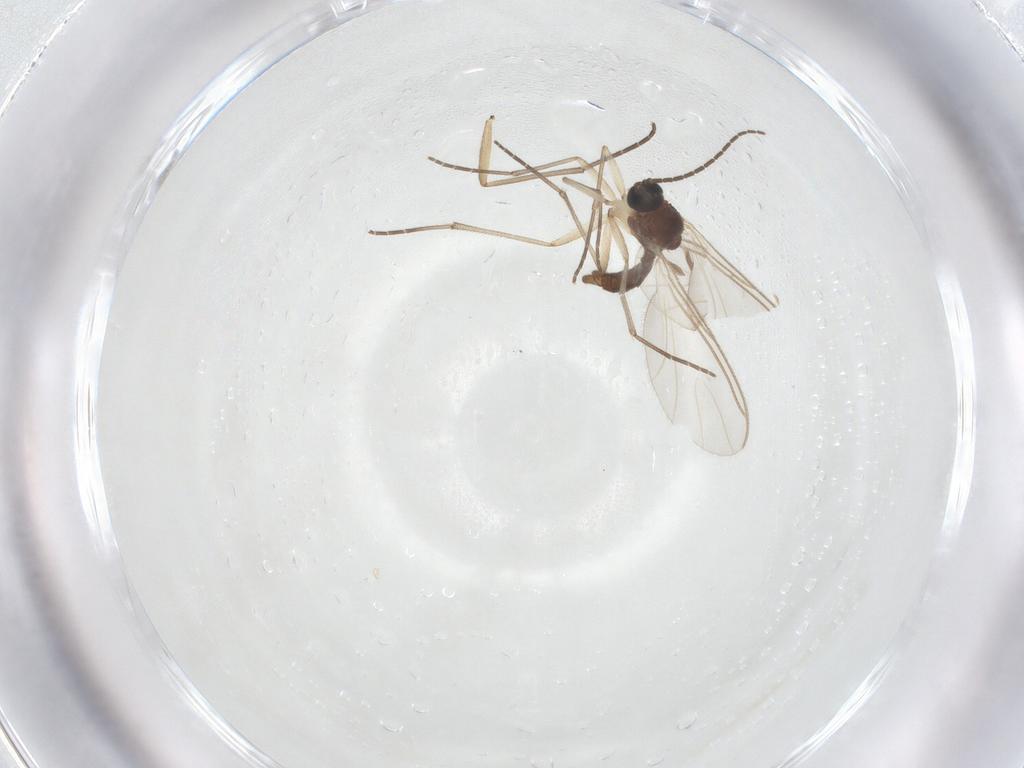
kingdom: Animalia
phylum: Arthropoda
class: Insecta
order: Diptera
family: Sciaridae
